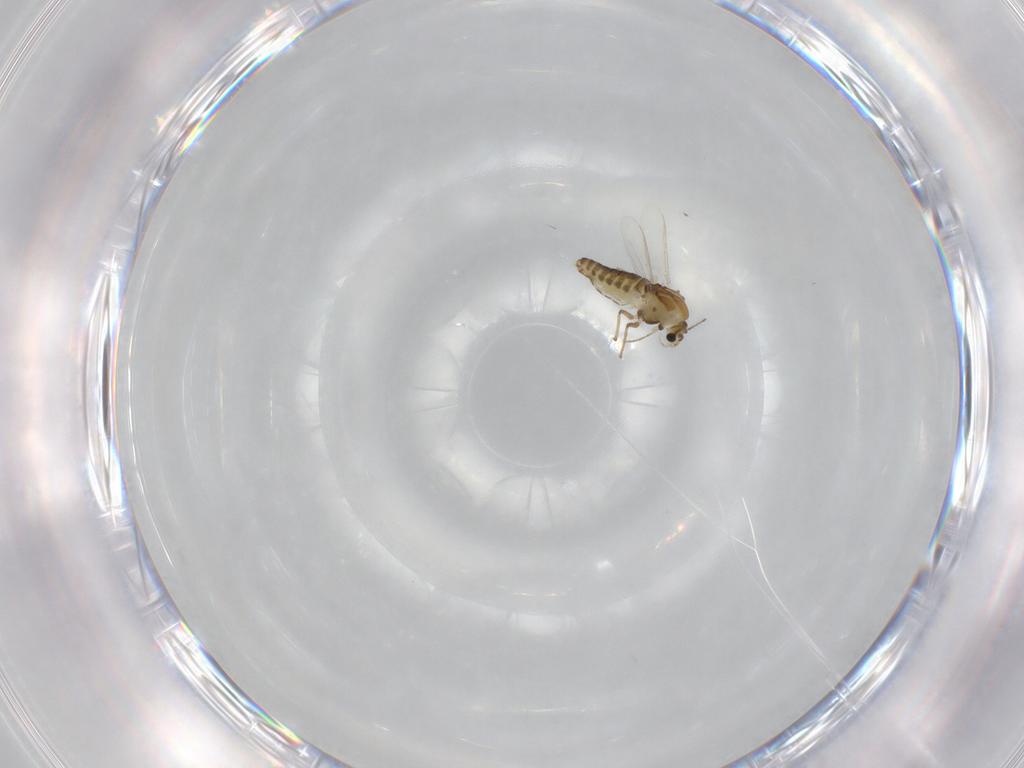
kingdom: Animalia
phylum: Arthropoda
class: Insecta
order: Diptera
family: Chironomidae
